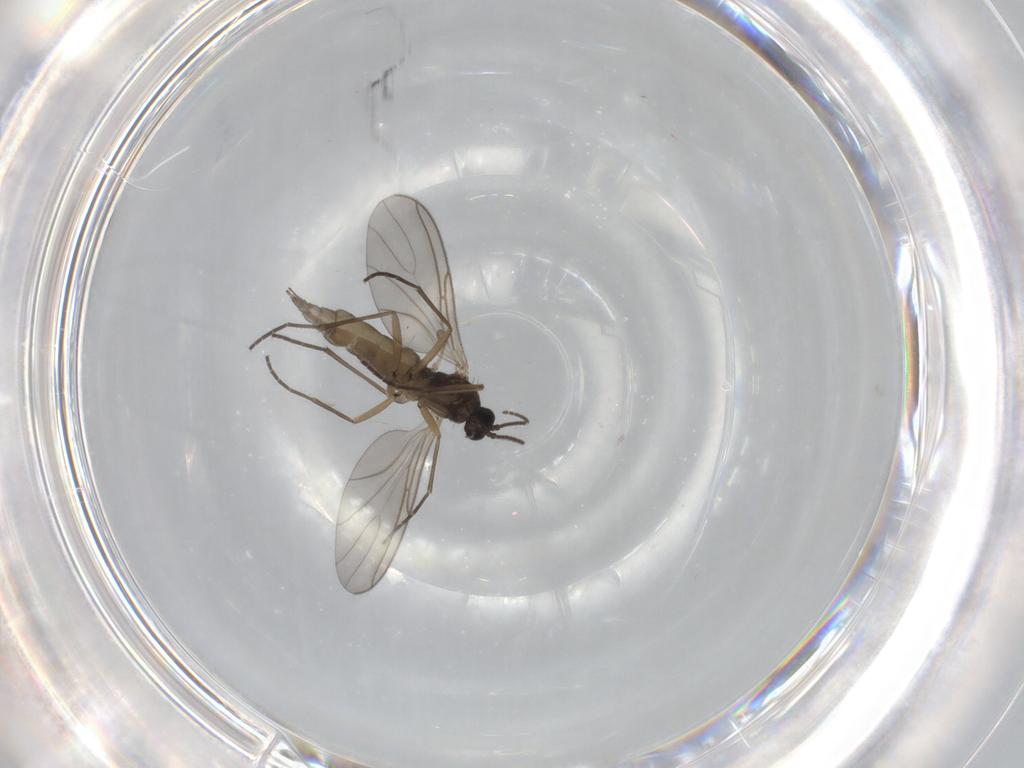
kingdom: Animalia
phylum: Arthropoda
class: Insecta
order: Diptera
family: Sciaridae
